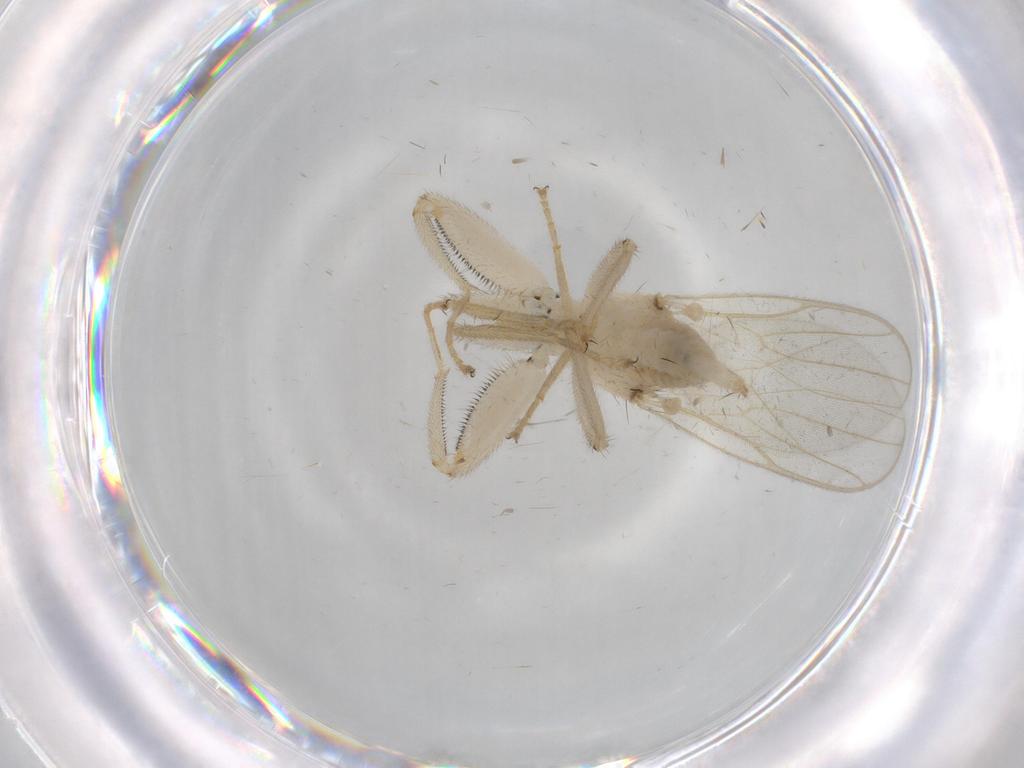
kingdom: Animalia
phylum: Arthropoda
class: Insecta
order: Diptera
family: Hybotidae
